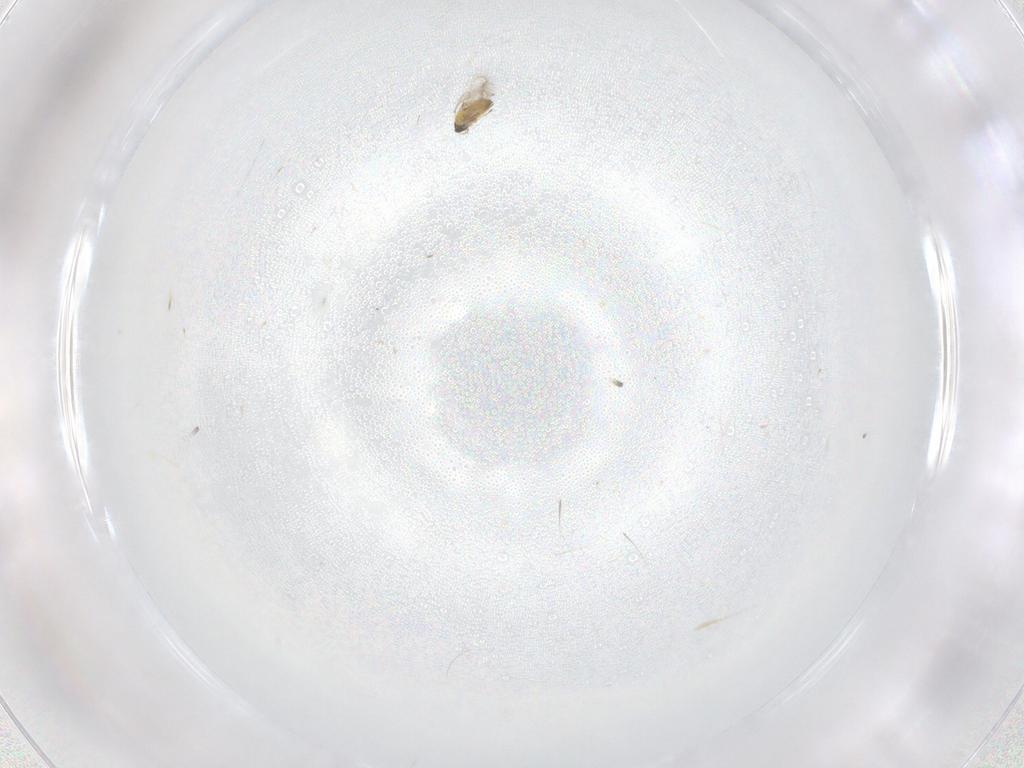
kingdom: Animalia
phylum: Arthropoda
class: Insecta
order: Hymenoptera
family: Trichogrammatidae
